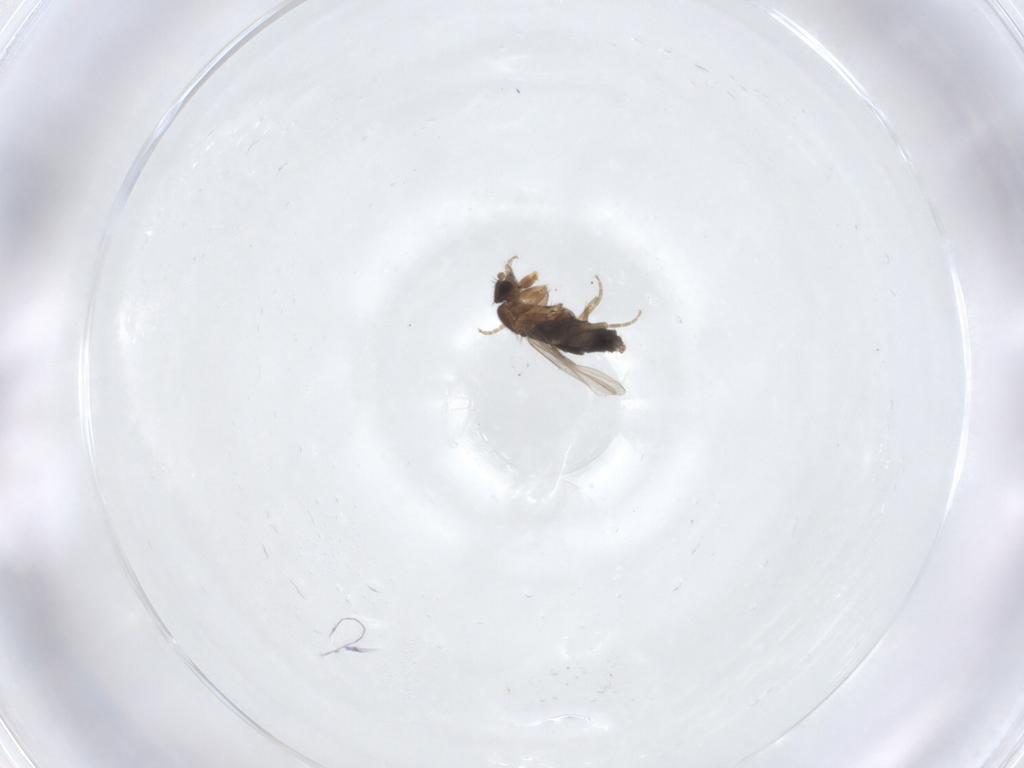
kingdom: Animalia
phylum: Arthropoda
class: Insecta
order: Diptera
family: Phoridae
